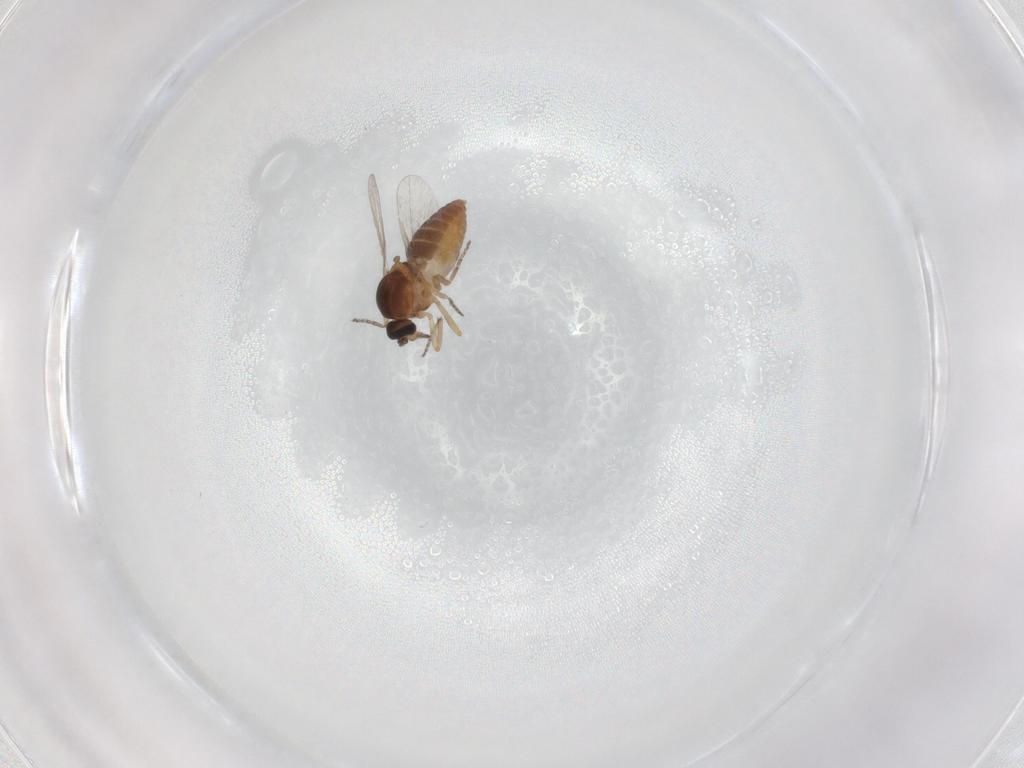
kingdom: Animalia
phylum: Arthropoda
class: Insecta
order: Diptera
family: Ceratopogonidae
